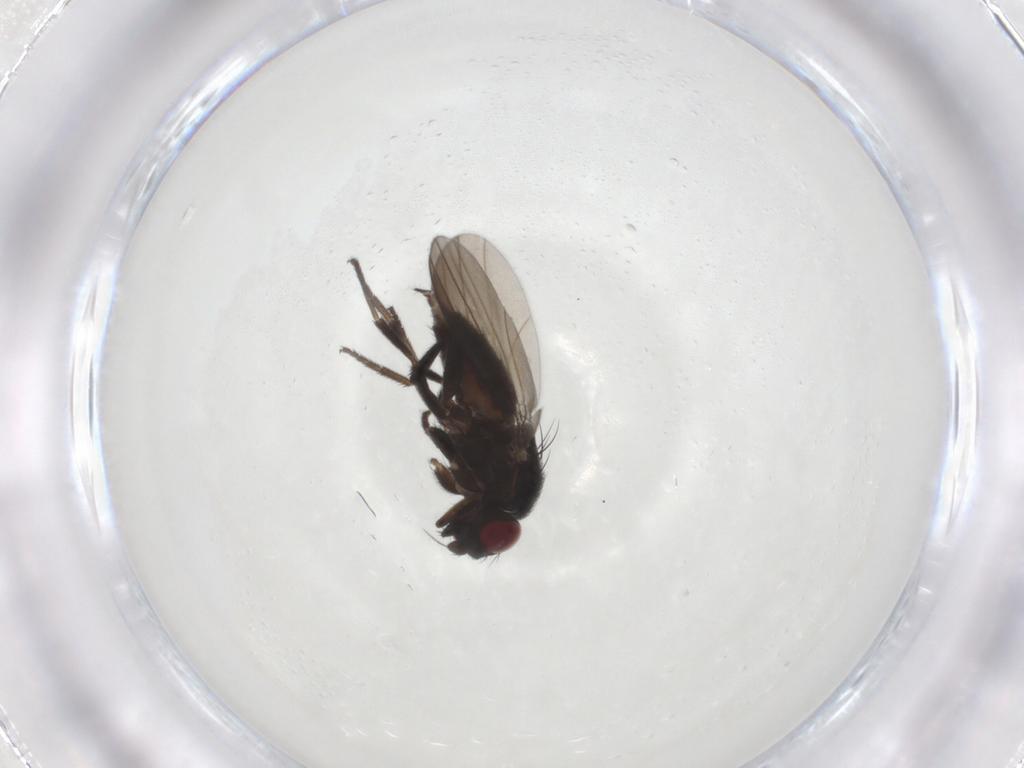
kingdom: Animalia
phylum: Arthropoda
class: Insecta
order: Diptera
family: Milichiidae
